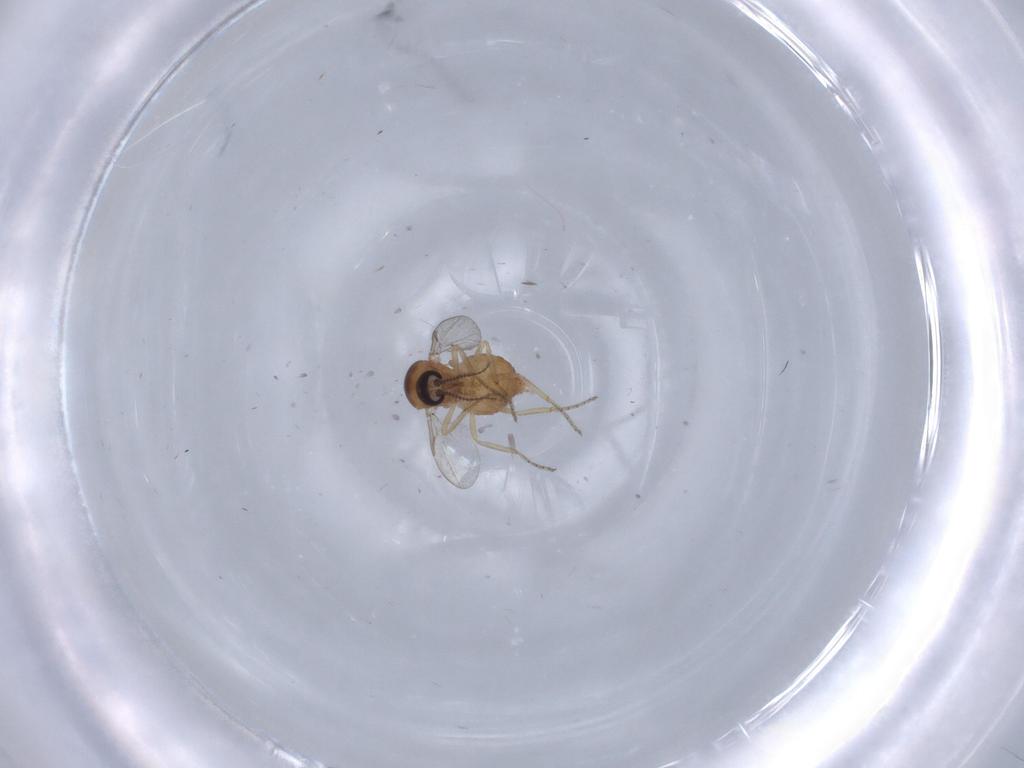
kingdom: Animalia
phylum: Arthropoda
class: Insecta
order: Diptera
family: Ceratopogonidae
